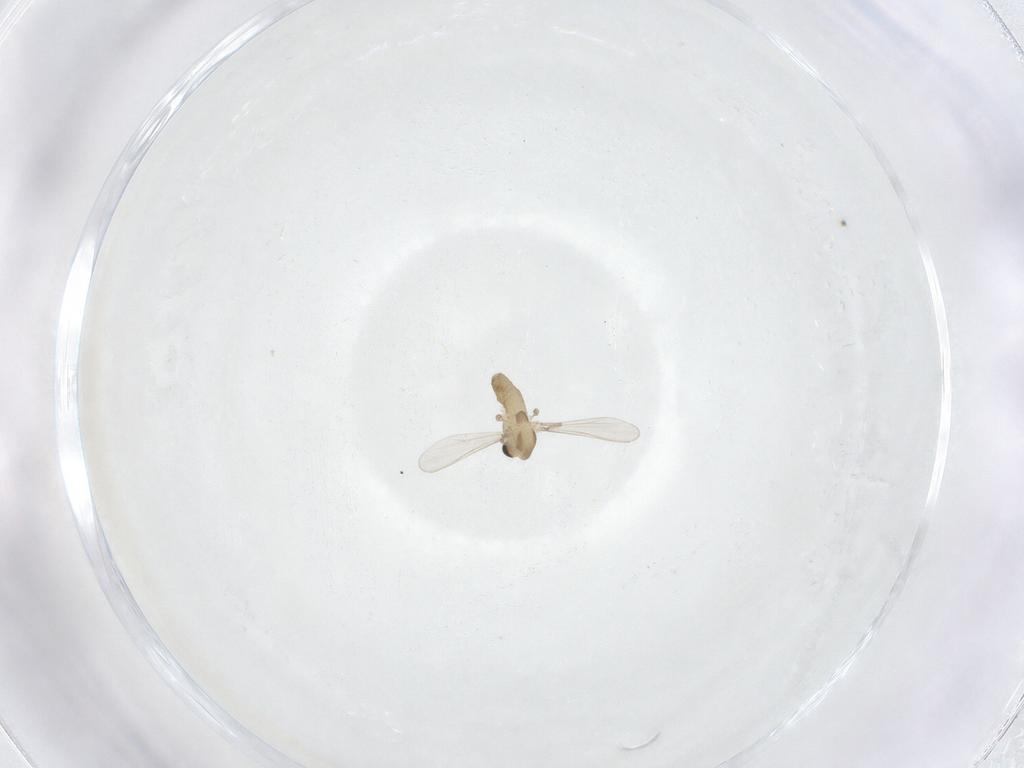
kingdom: Animalia
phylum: Arthropoda
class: Insecta
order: Diptera
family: Chironomidae
